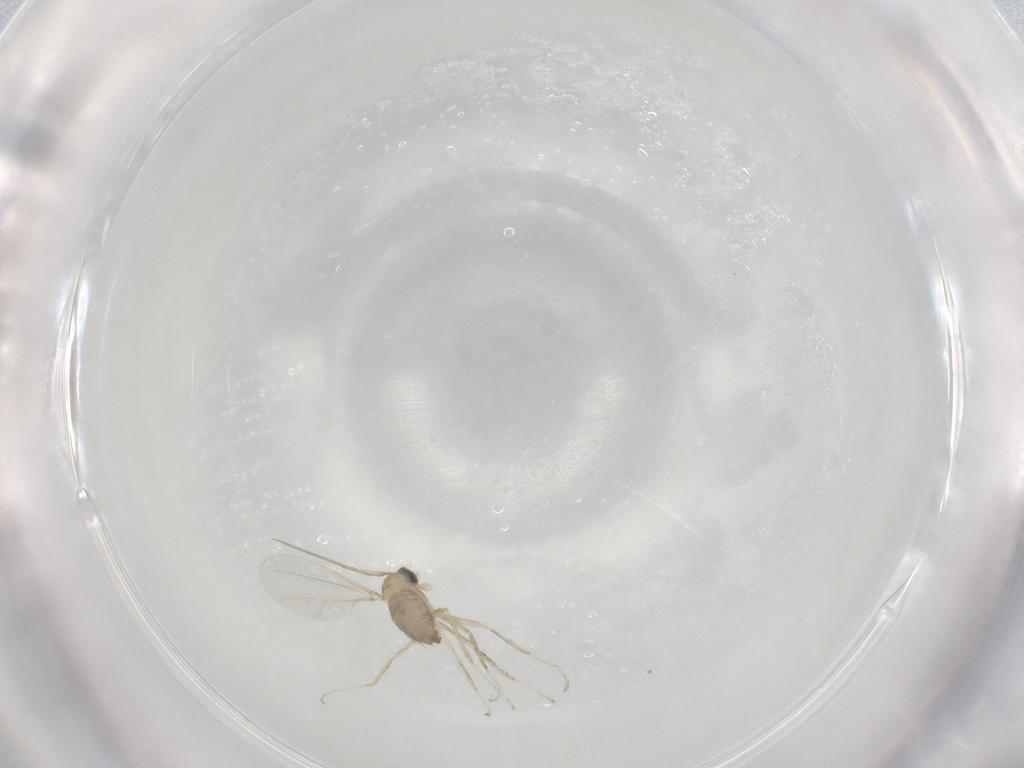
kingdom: Animalia
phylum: Arthropoda
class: Insecta
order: Diptera
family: Cecidomyiidae
